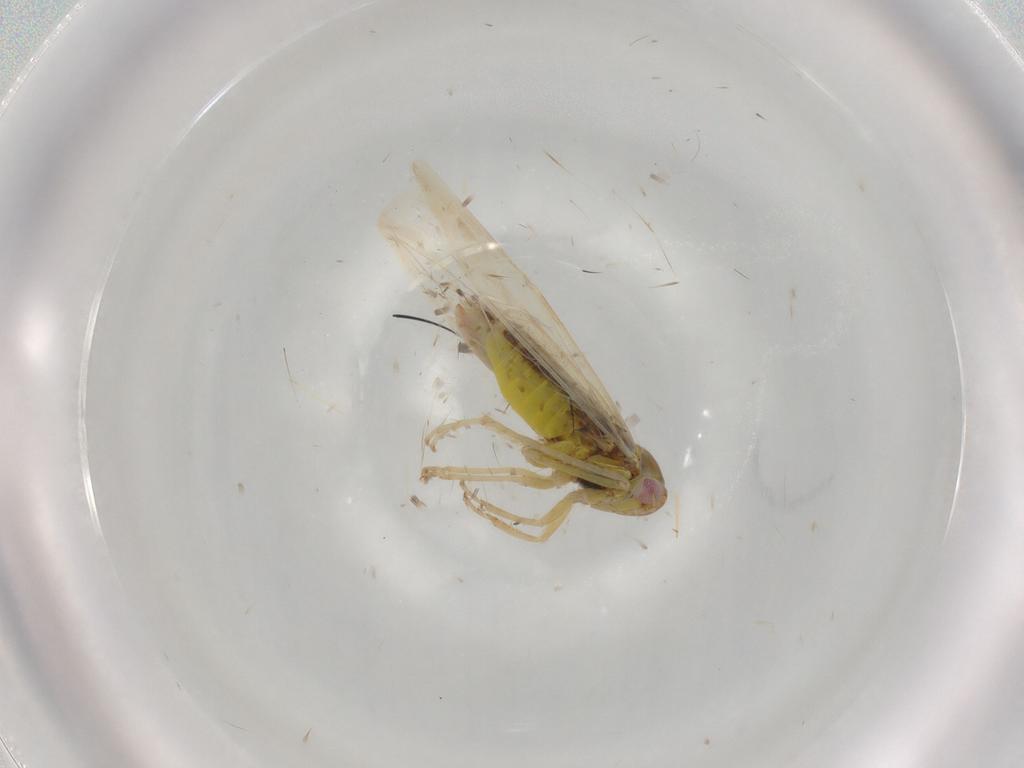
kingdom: Animalia
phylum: Arthropoda
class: Insecta
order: Hemiptera
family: Cicadellidae
